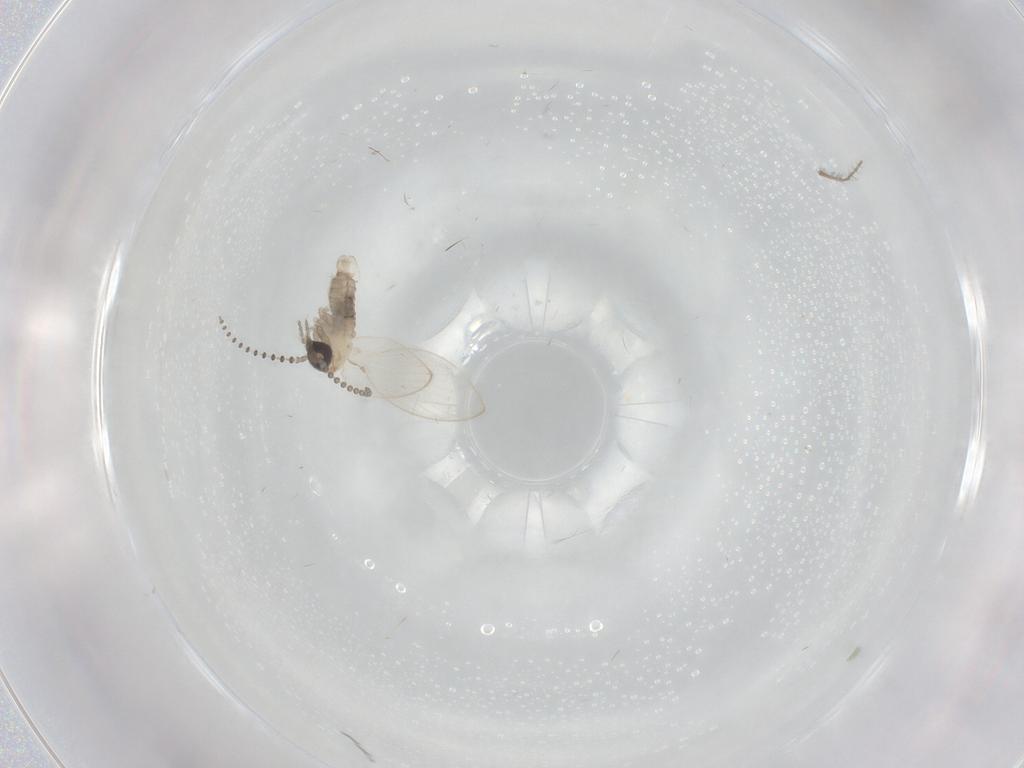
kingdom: Animalia
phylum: Arthropoda
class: Insecta
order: Diptera
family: Psychodidae
